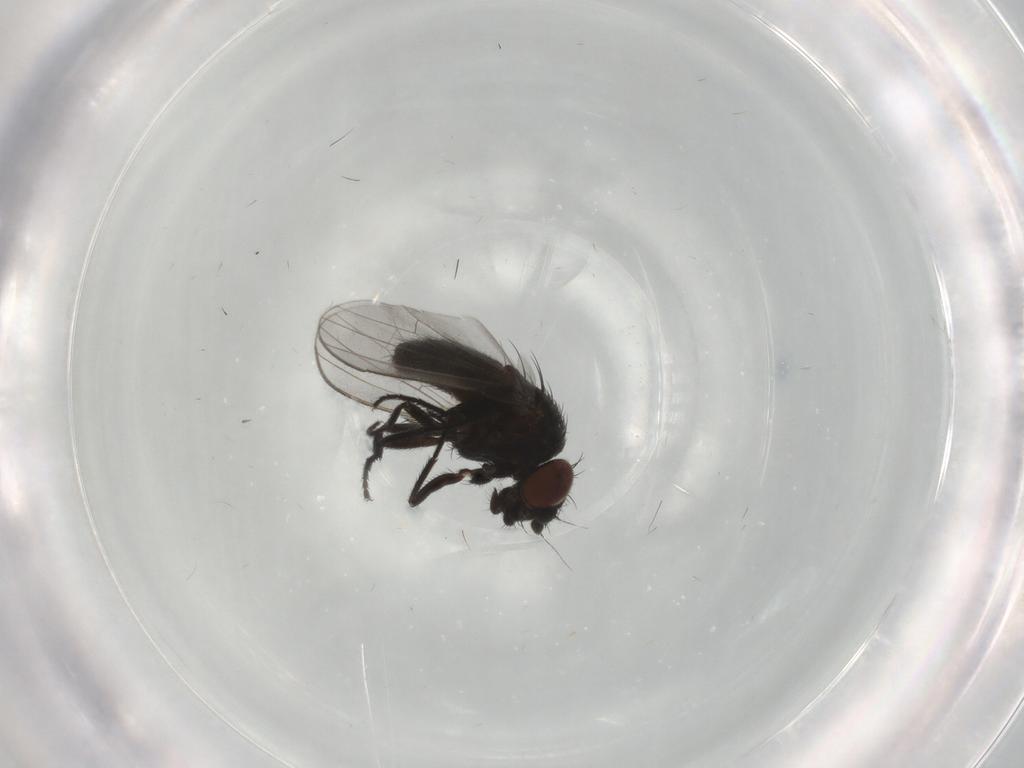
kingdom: Animalia
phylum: Arthropoda
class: Insecta
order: Diptera
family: Milichiidae
